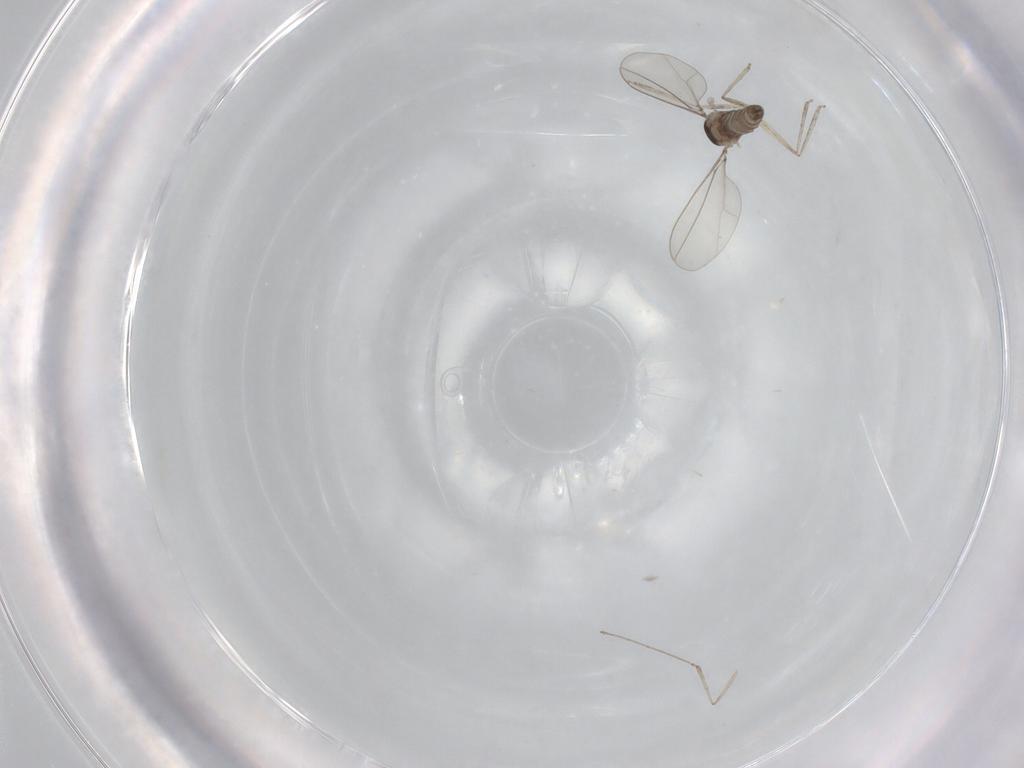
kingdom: Animalia
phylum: Arthropoda
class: Insecta
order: Diptera
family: Cecidomyiidae
